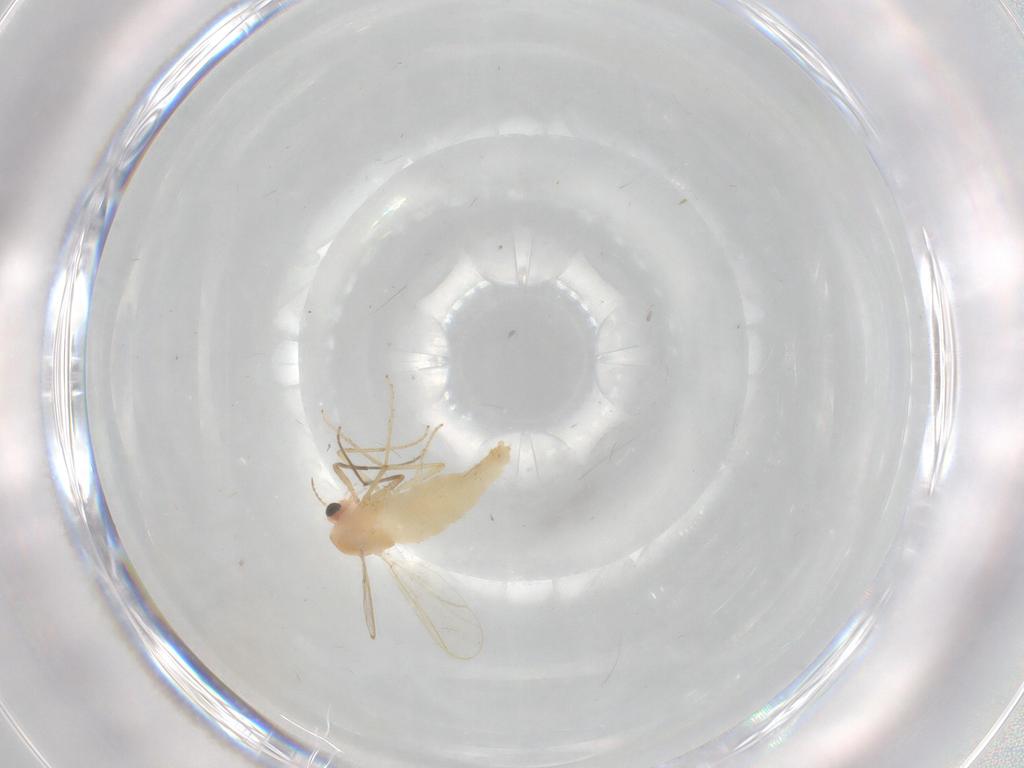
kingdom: Animalia
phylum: Arthropoda
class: Insecta
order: Diptera
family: Chironomidae
